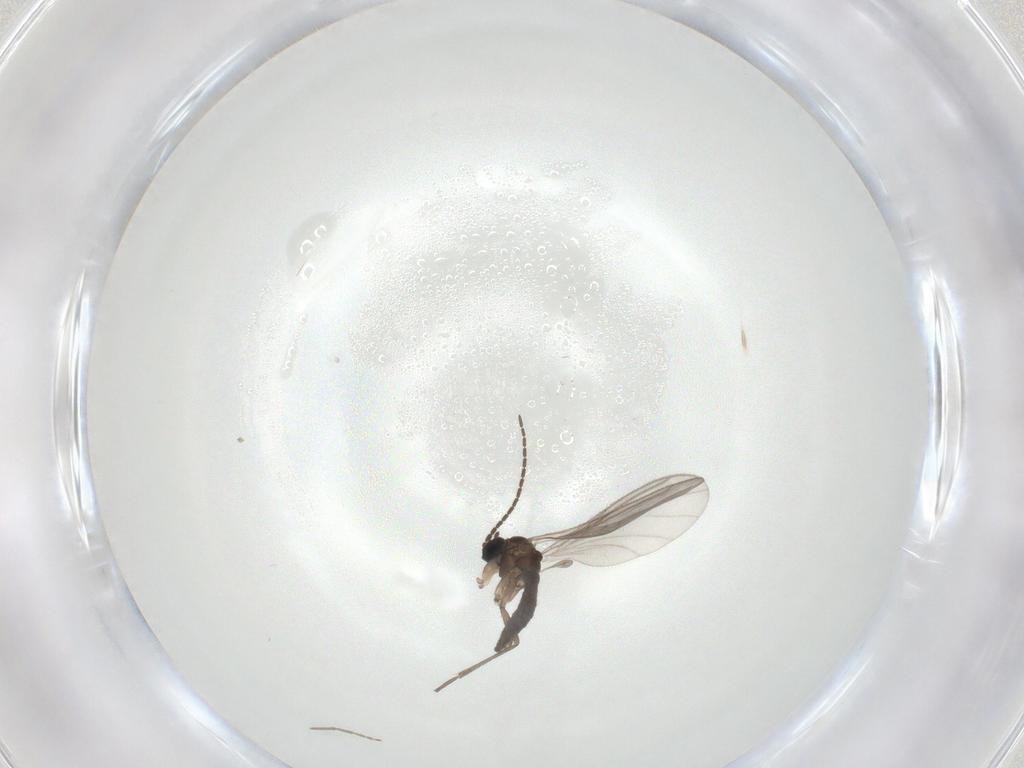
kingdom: Animalia
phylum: Arthropoda
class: Insecta
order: Diptera
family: Sciaridae
